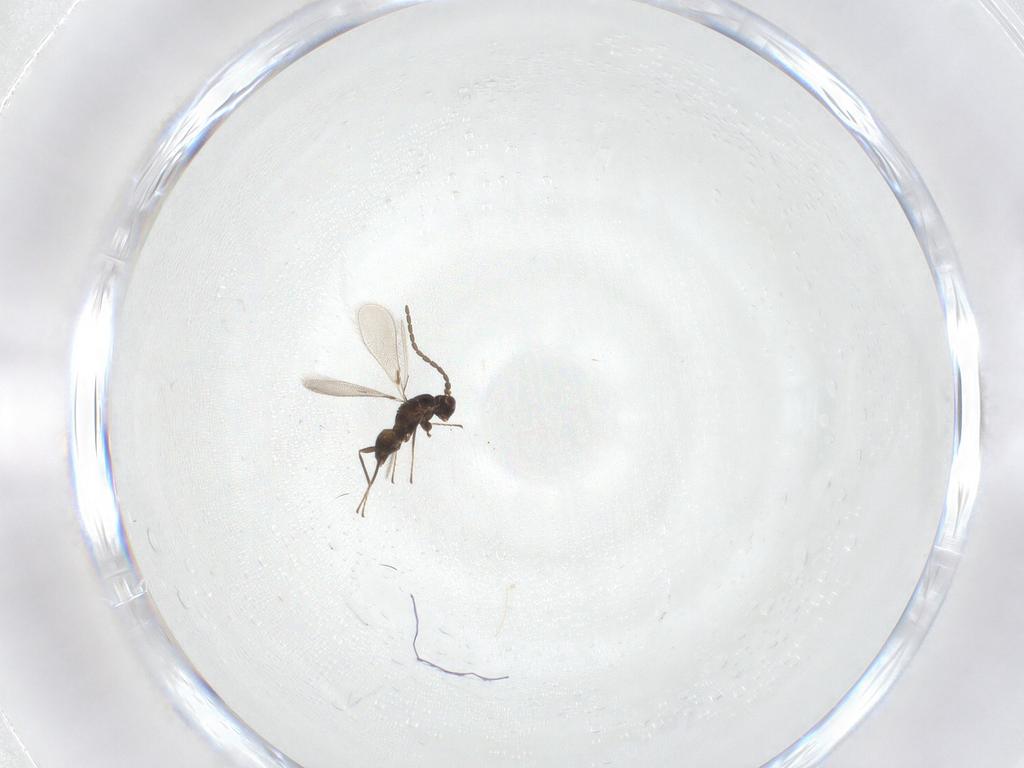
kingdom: Animalia
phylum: Arthropoda
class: Insecta
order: Hymenoptera
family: Mymaridae
